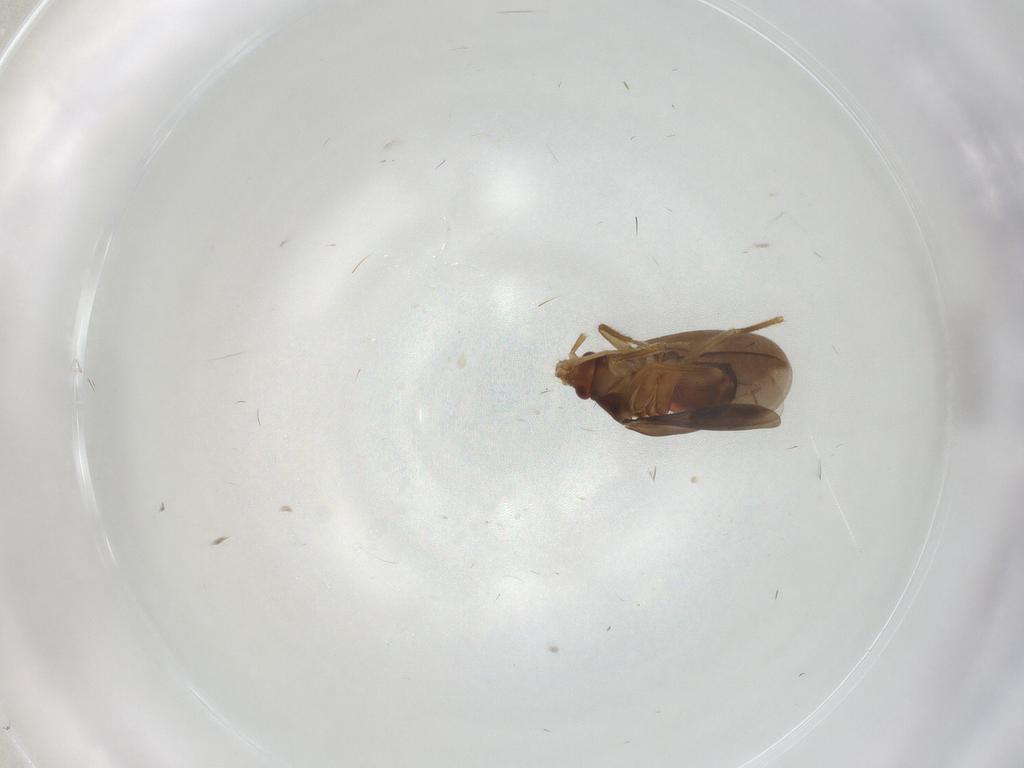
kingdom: Animalia
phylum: Arthropoda
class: Insecta
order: Hemiptera
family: Ceratocombidae
